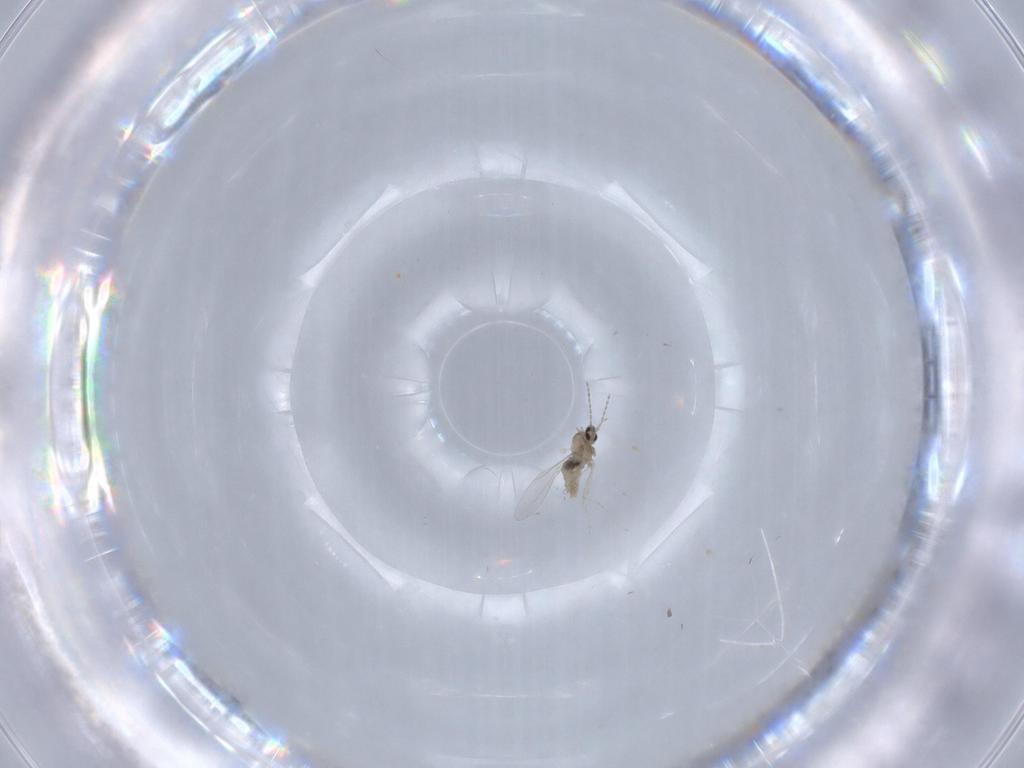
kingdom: Animalia
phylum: Arthropoda
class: Insecta
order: Diptera
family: Cecidomyiidae
